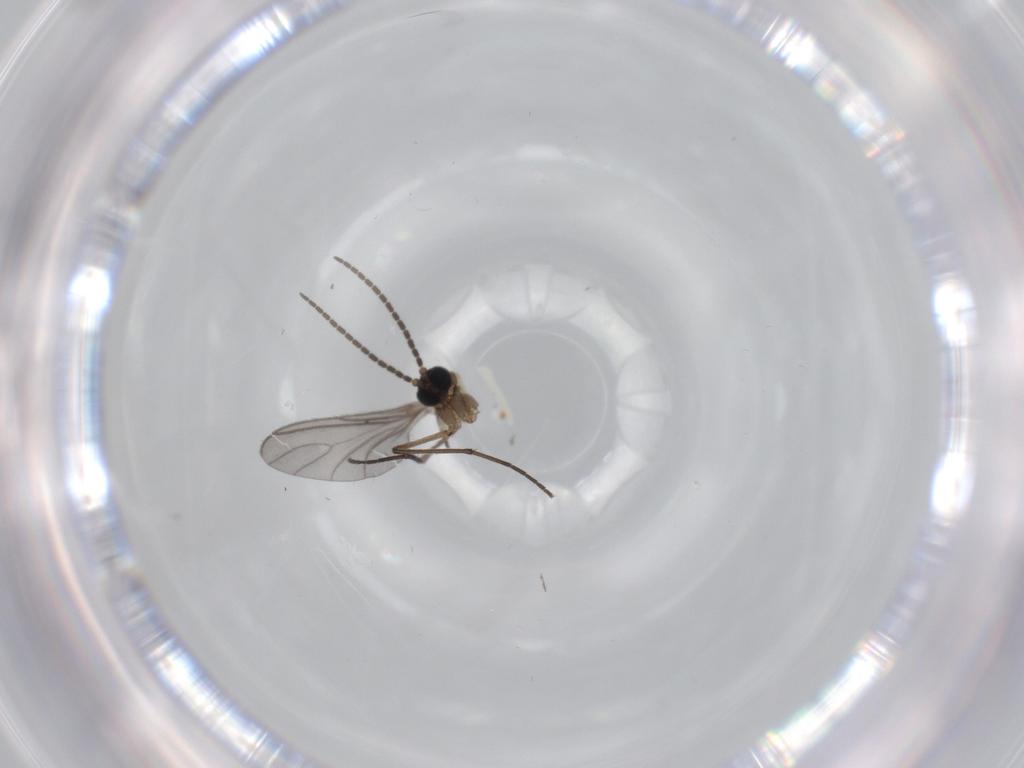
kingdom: Animalia
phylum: Arthropoda
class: Insecta
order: Diptera
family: Sciaridae
